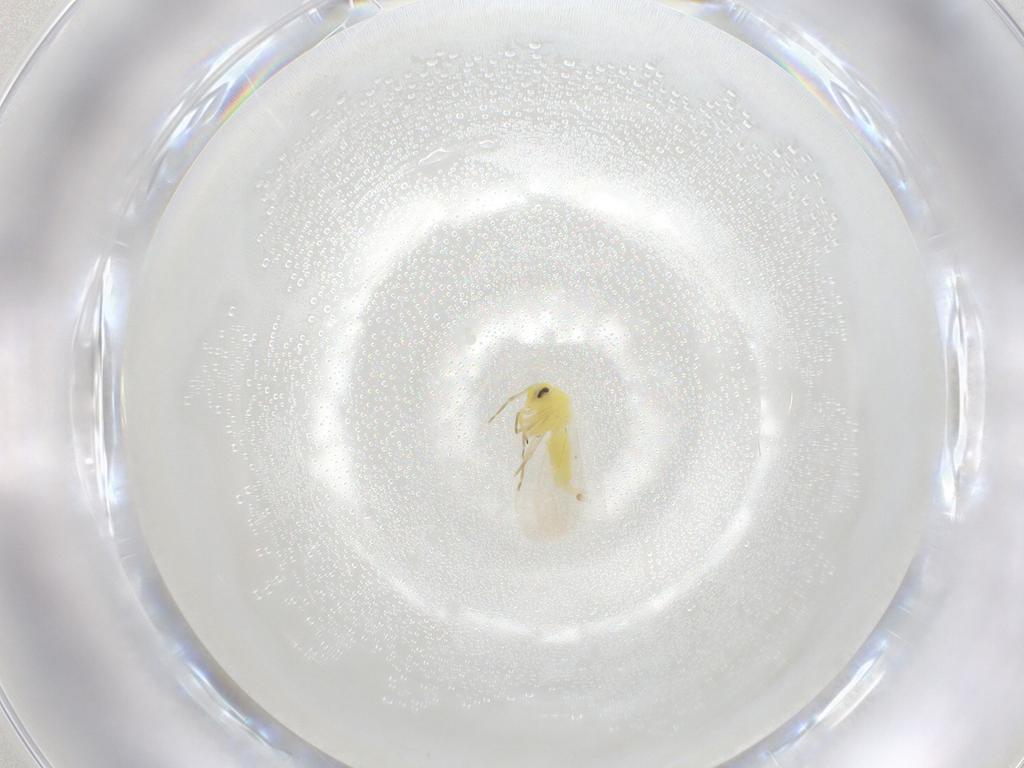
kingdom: Animalia
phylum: Arthropoda
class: Insecta
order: Hemiptera
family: Aleyrodidae
